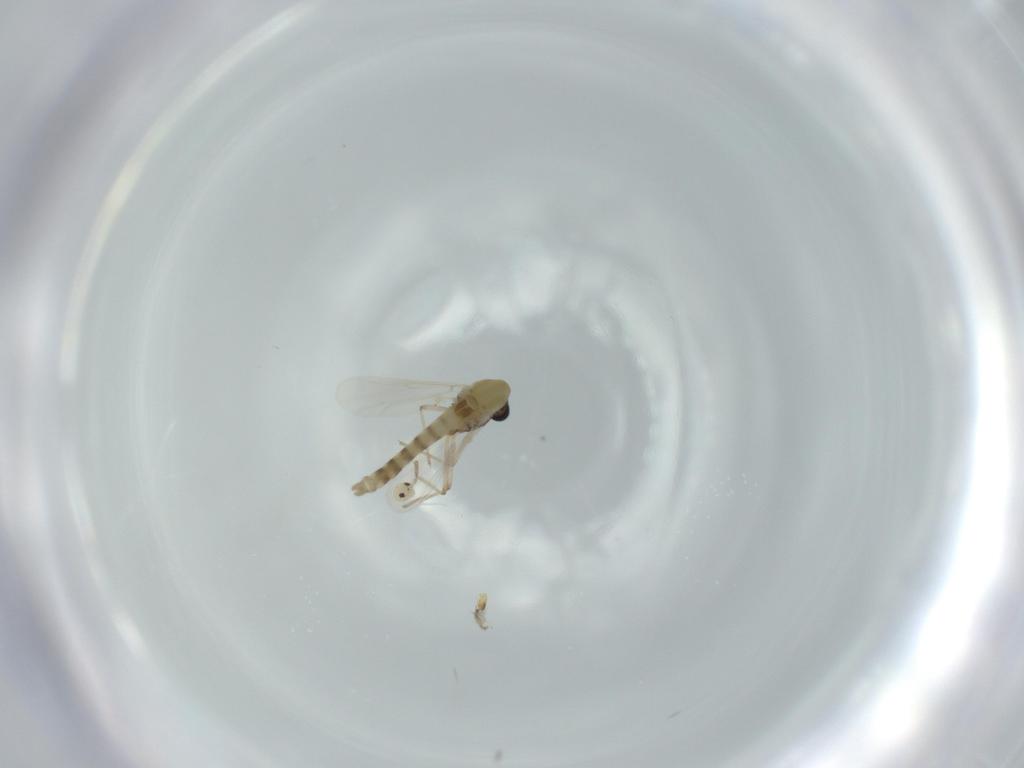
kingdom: Animalia
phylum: Arthropoda
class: Insecta
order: Diptera
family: Chironomidae
